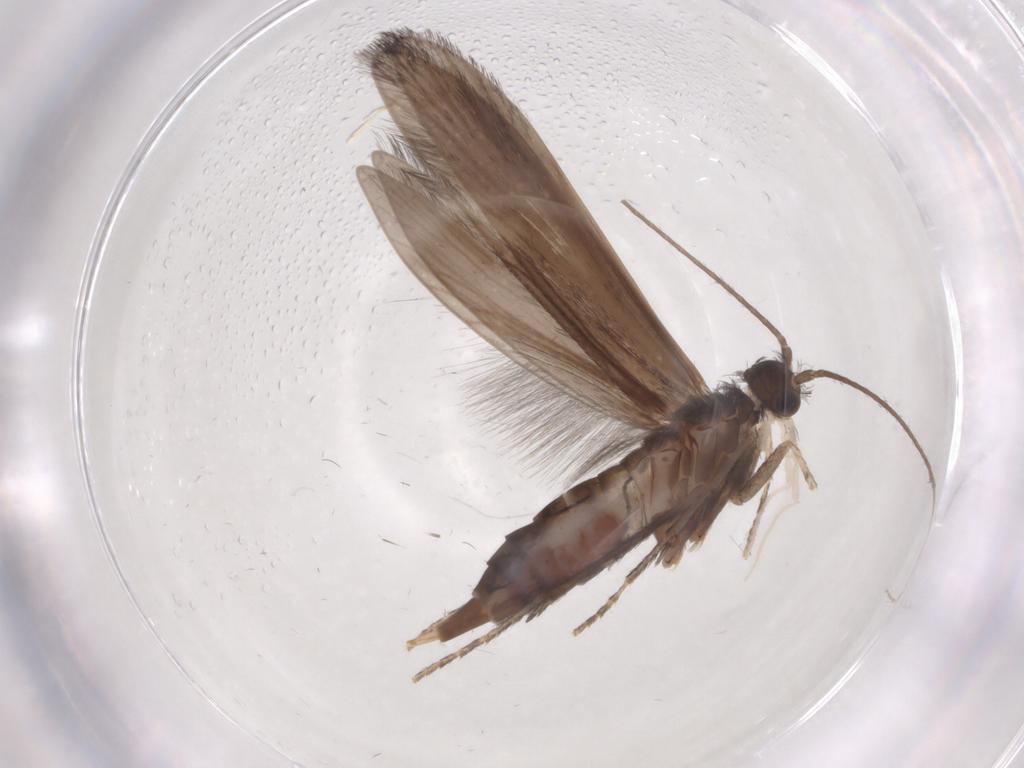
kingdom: Animalia
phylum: Arthropoda
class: Insecta
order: Trichoptera
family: Xiphocentronidae
